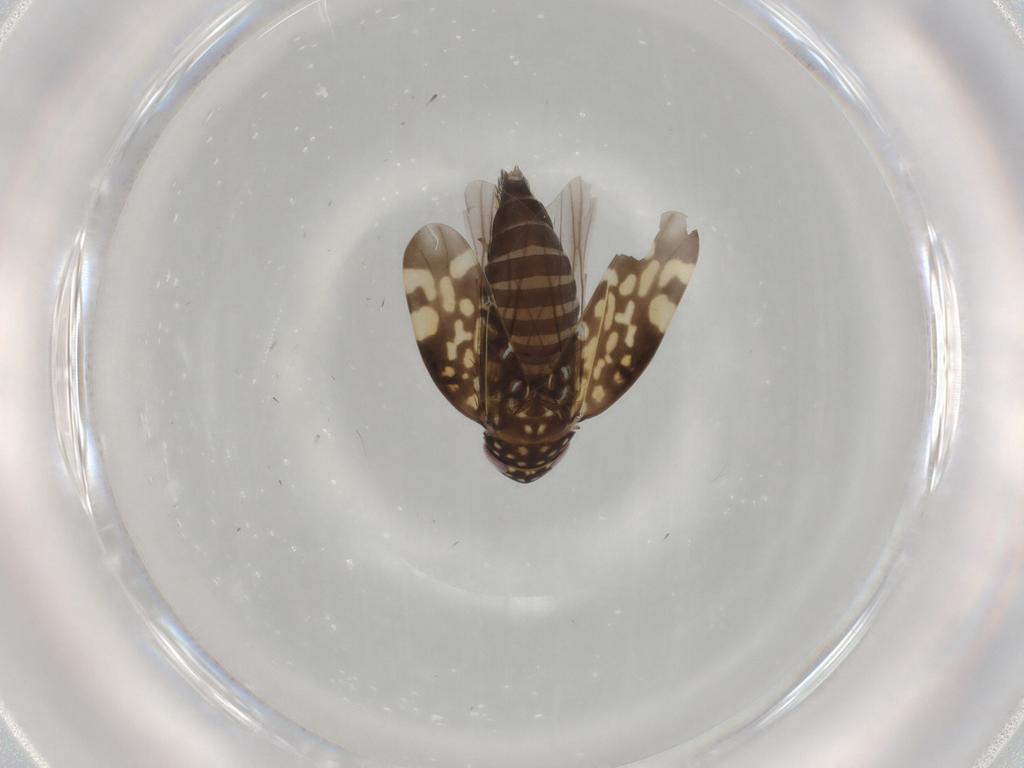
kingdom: Animalia
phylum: Arthropoda
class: Insecta
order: Hemiptera
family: Cicadellidae
